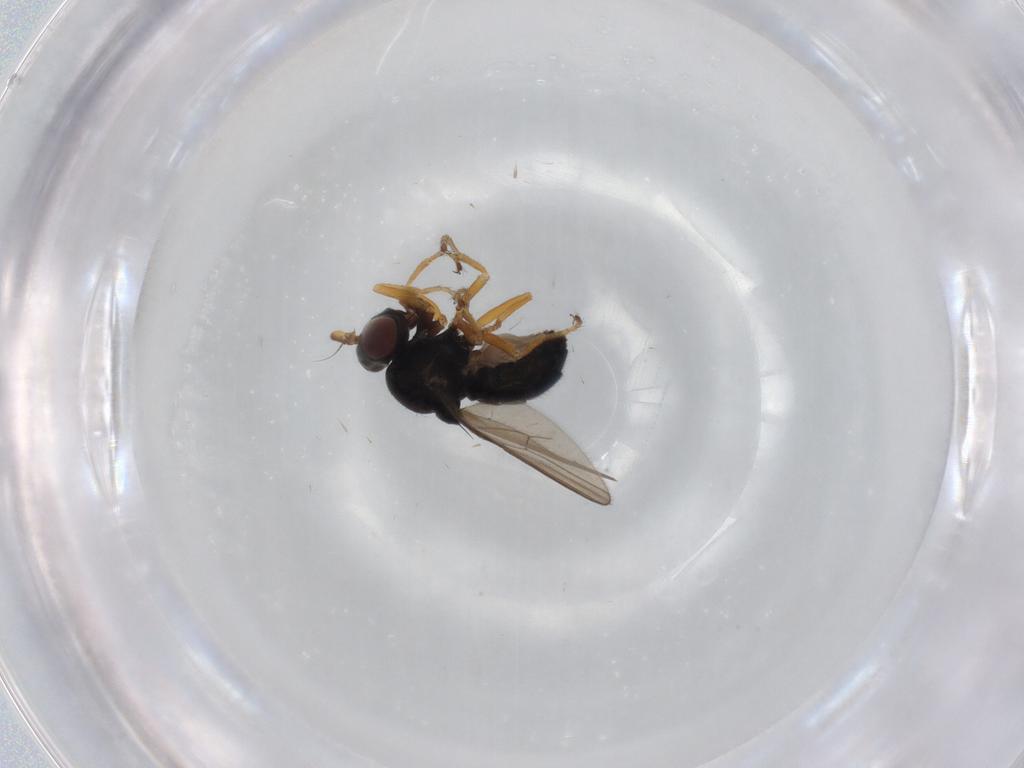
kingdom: Animalia
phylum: Arthropoda
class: Insecta
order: Diptera
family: Ephydridae
